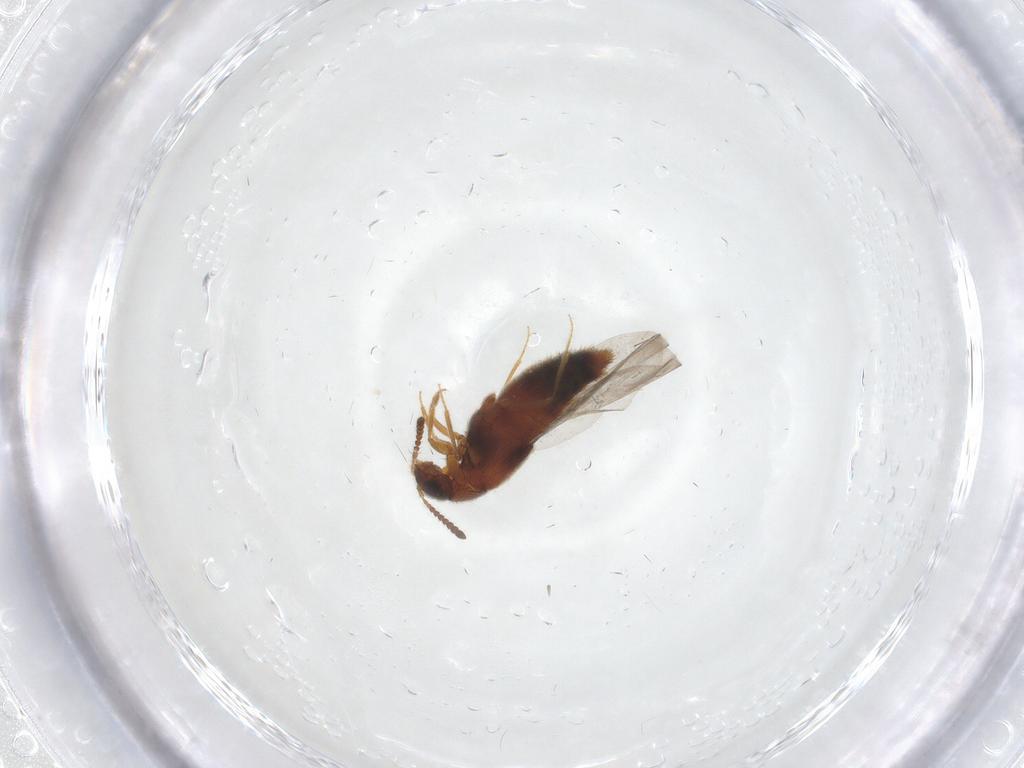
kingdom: Animalia
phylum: Arthropoda
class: Insecta
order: Coleoptera
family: Staphylinidae
